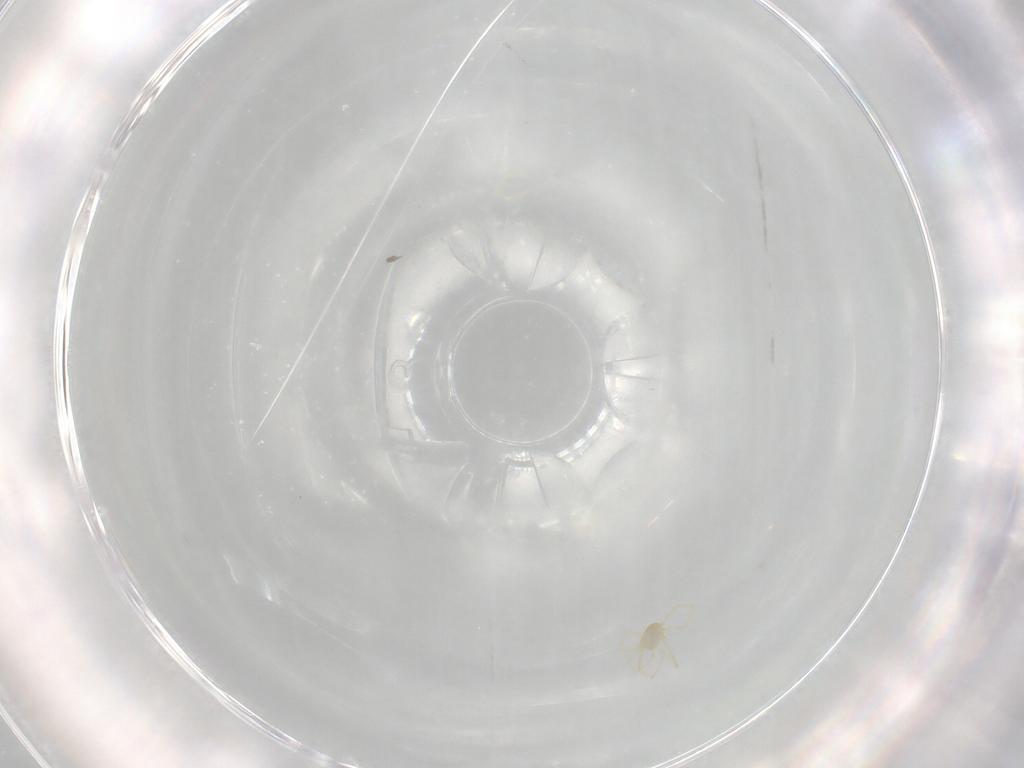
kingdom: Animalia
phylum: Arthropoda
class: Arachnida
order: Trombidiformes
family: Erythraeidae
